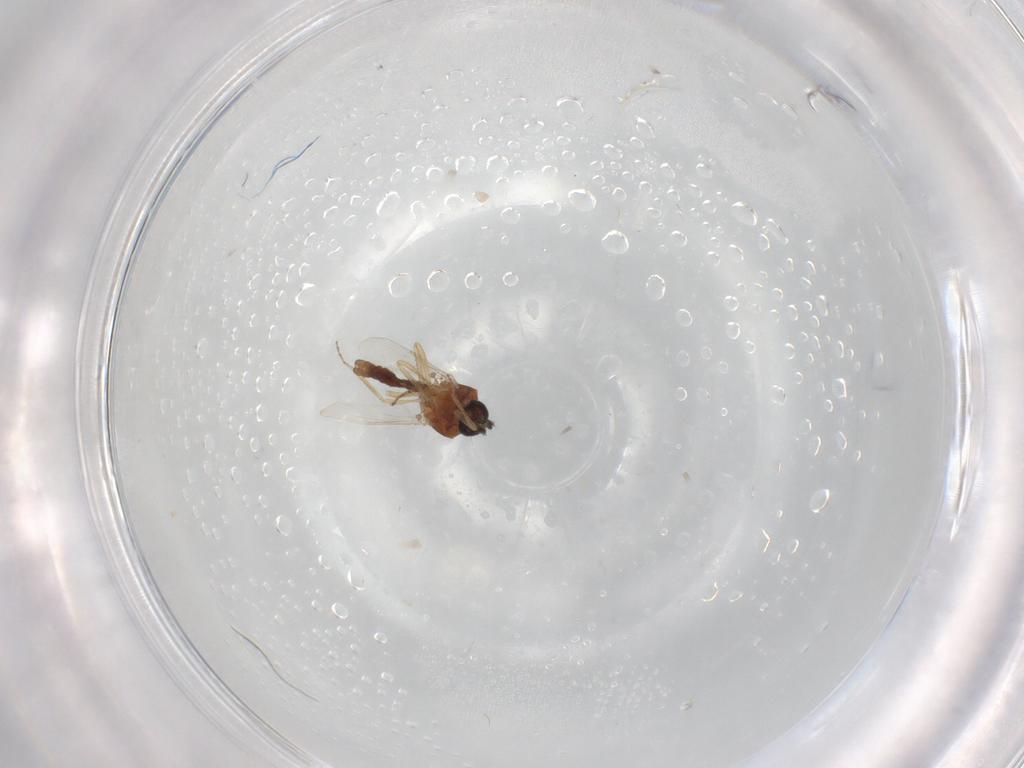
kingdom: Animalia
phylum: Arthropoda
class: Insecta
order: Diptera
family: Ceratopogonidae
